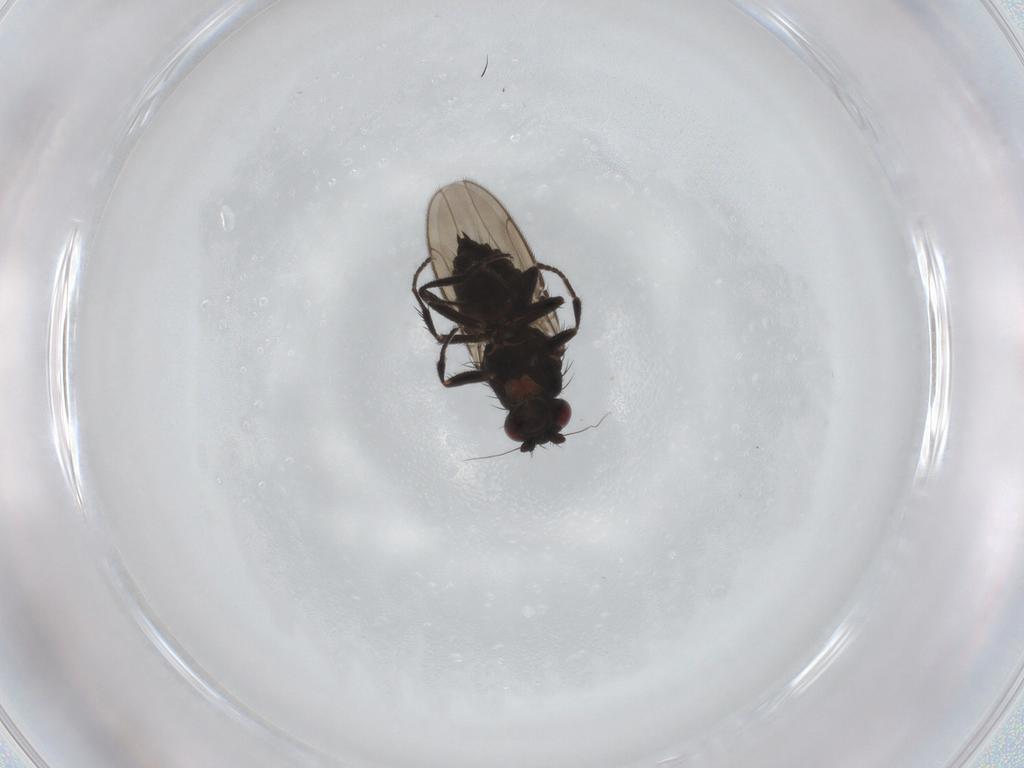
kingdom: Animalia
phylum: Arthropoda
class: Insecta
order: Diptera
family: Sphaeroceridae
